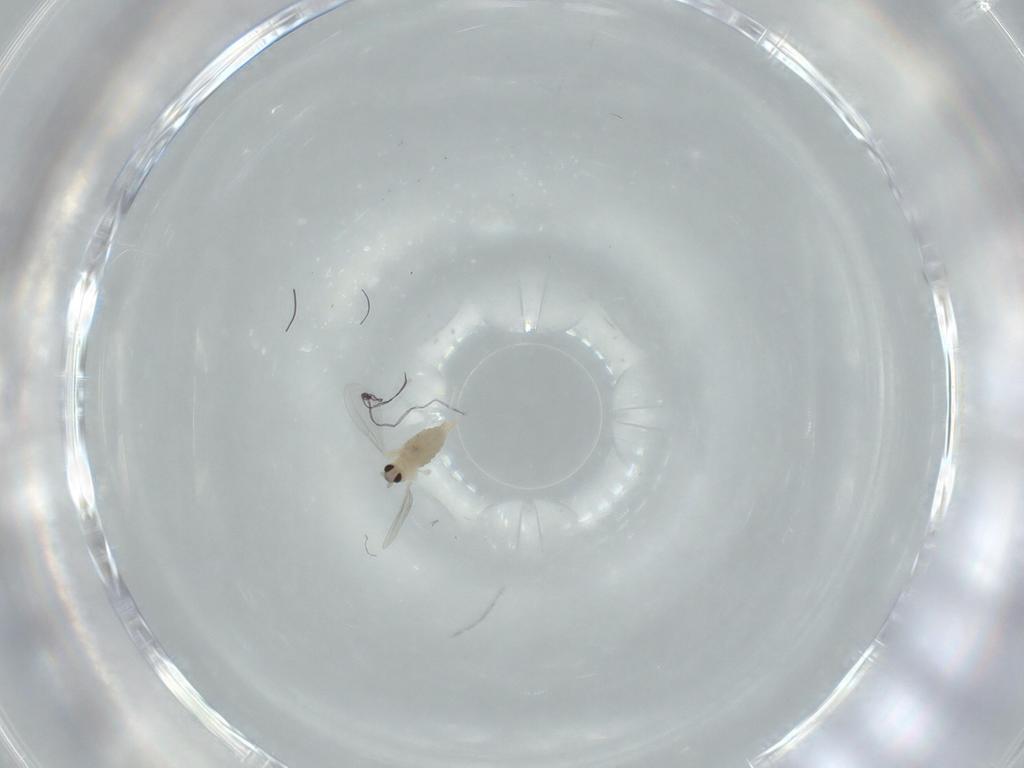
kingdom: Animalia
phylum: Arthropoda
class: Insecta
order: Diptera
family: Cecidomyiidae
